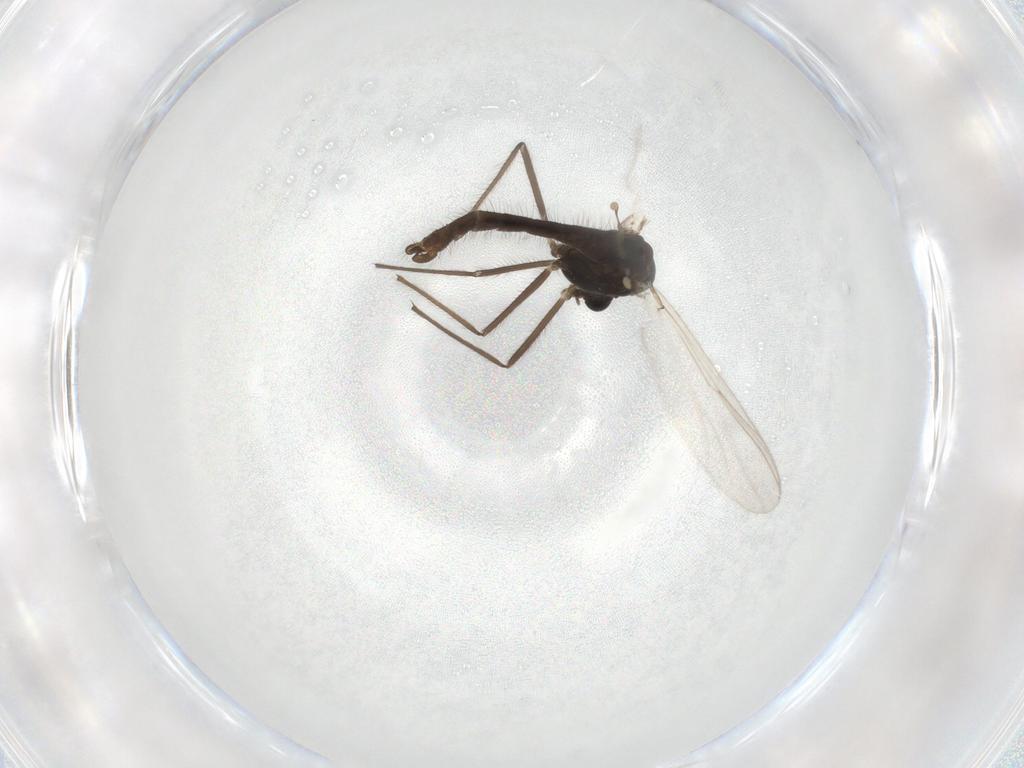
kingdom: Animalia
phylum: Arthropoda
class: Insecta
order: Diptera
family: Chironomidae
